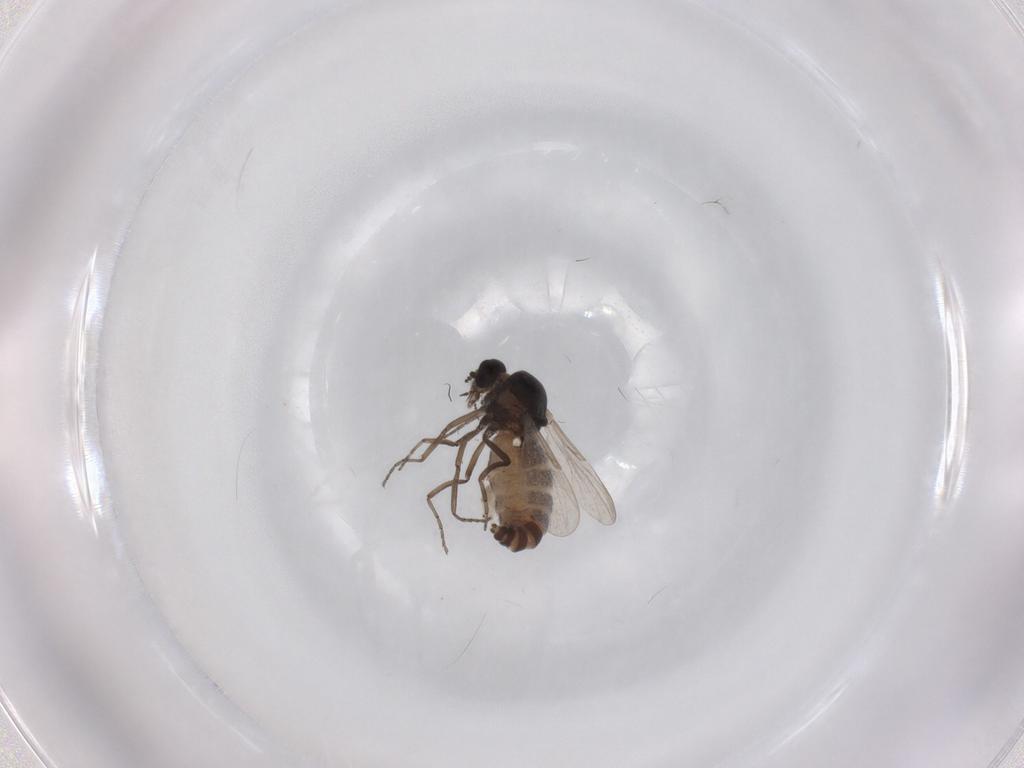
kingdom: Animalia
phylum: Arthropoda
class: Insecta
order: Diptera
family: Ceratopogonidae
